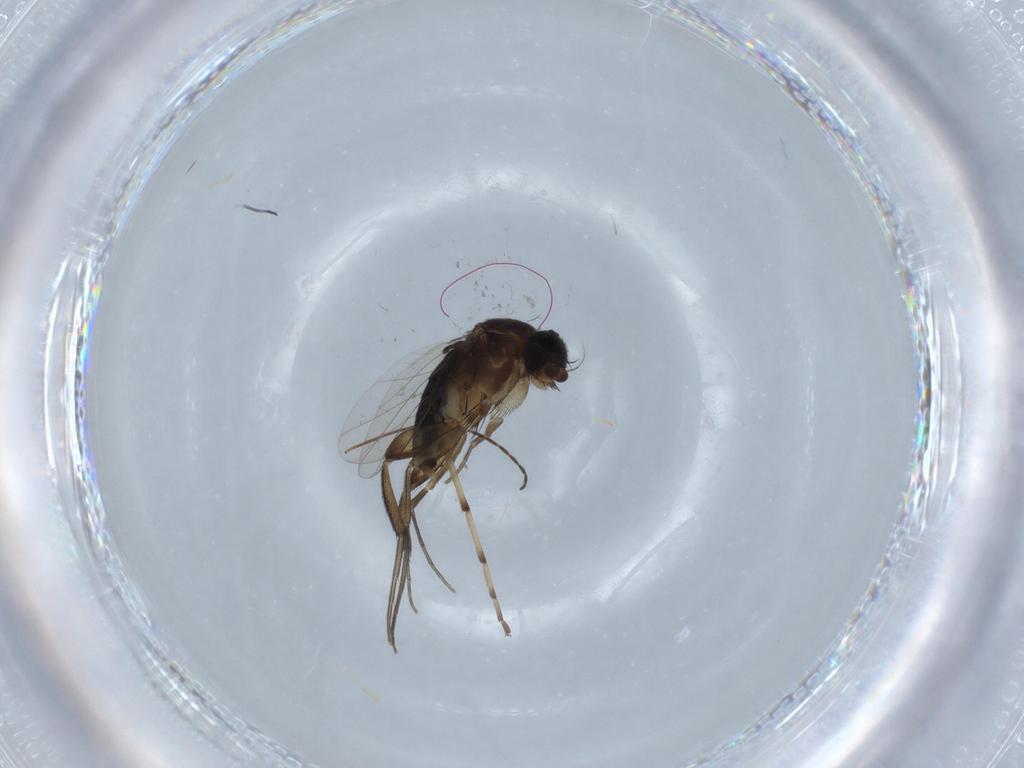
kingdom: Animalia
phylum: Arthropoda
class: Insecta
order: Diptera
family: Phoridae
